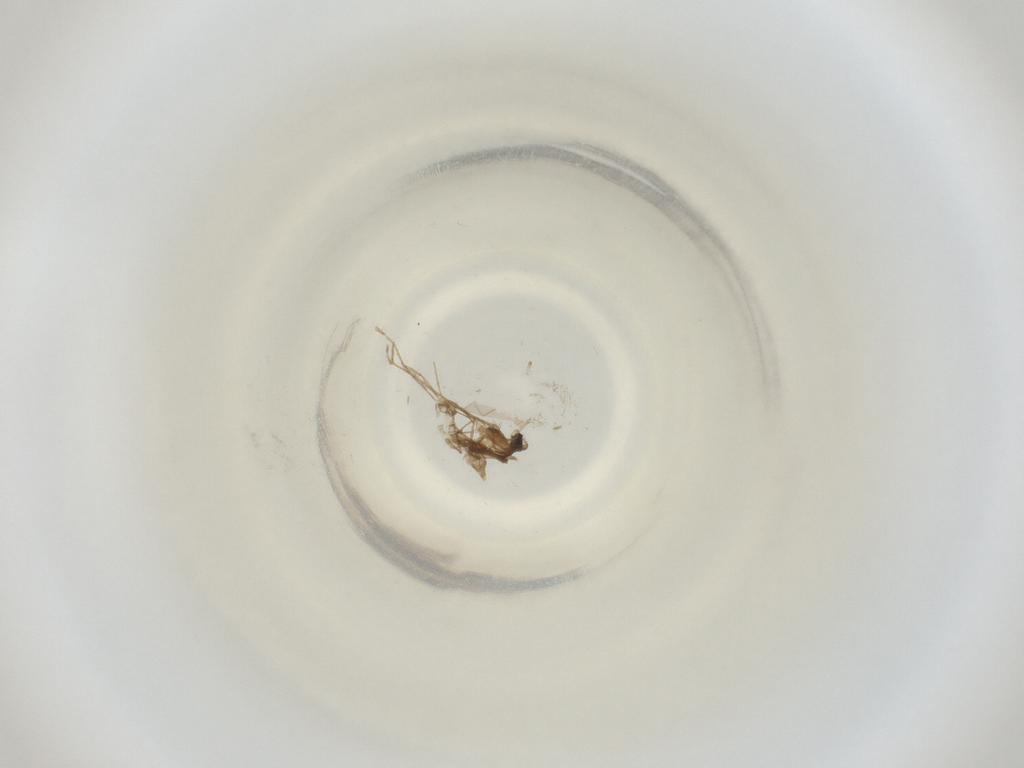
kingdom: Animalia
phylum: Arthropoda
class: Insecta
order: Diptera
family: Cecidomyiidae
